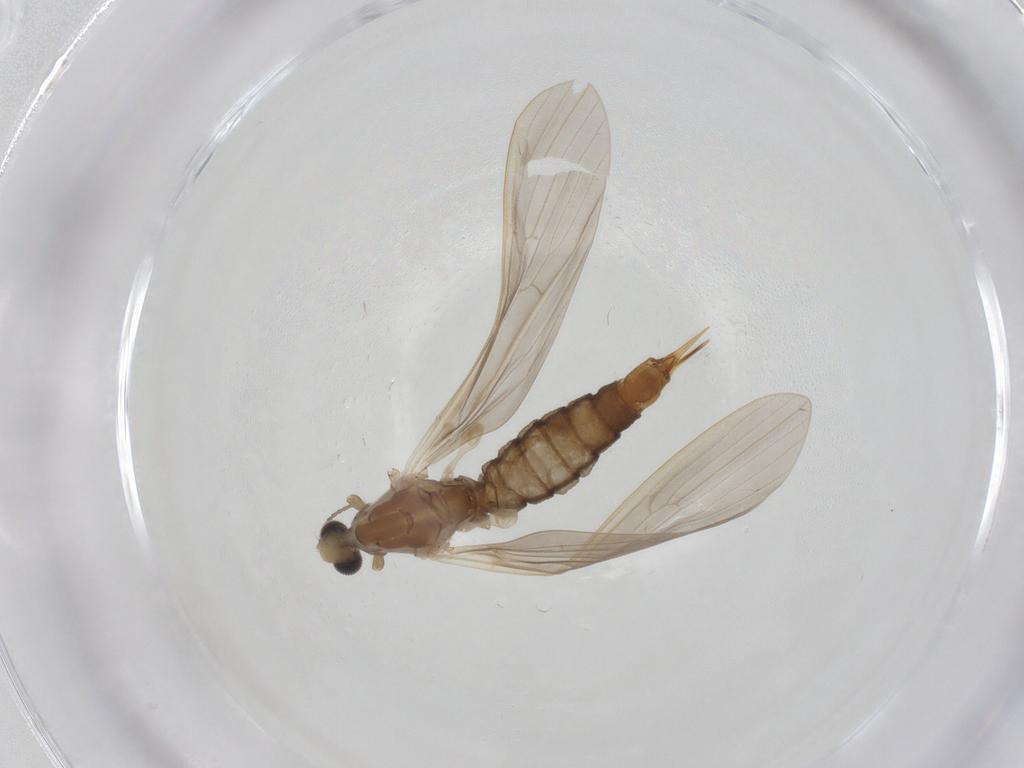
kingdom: Animalia
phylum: Arthropoda
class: Insecta
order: Diptera
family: Limoniidae
